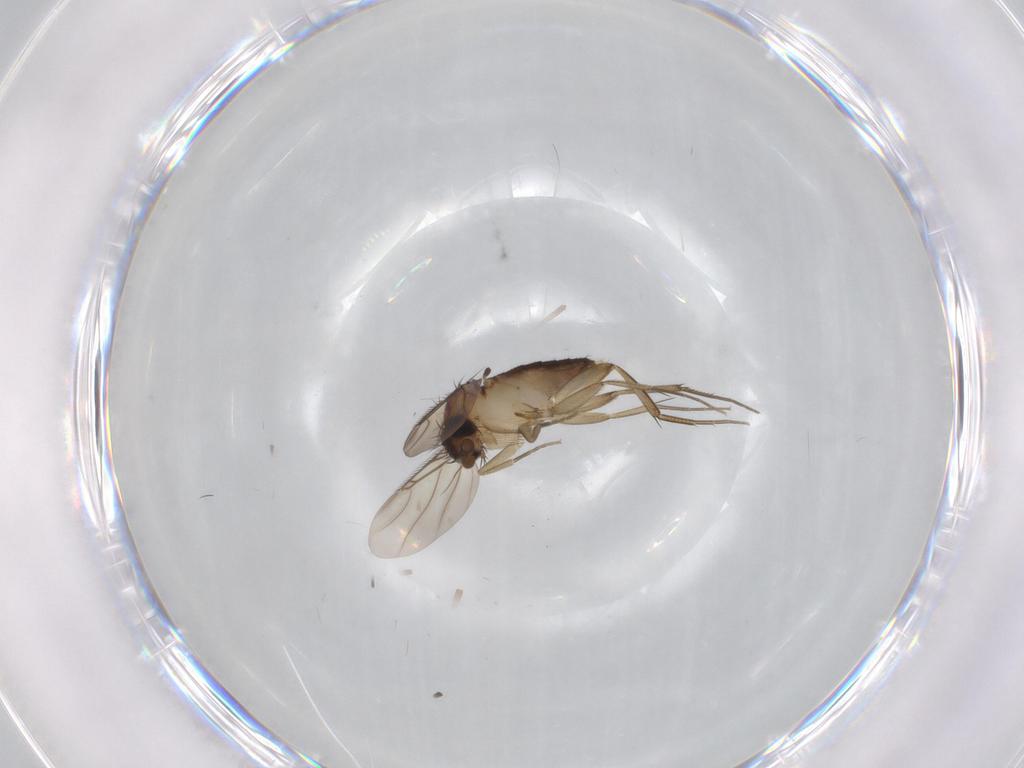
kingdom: Animalia
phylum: Arthropoda
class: Insecta
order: Diptera
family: Phoridae
